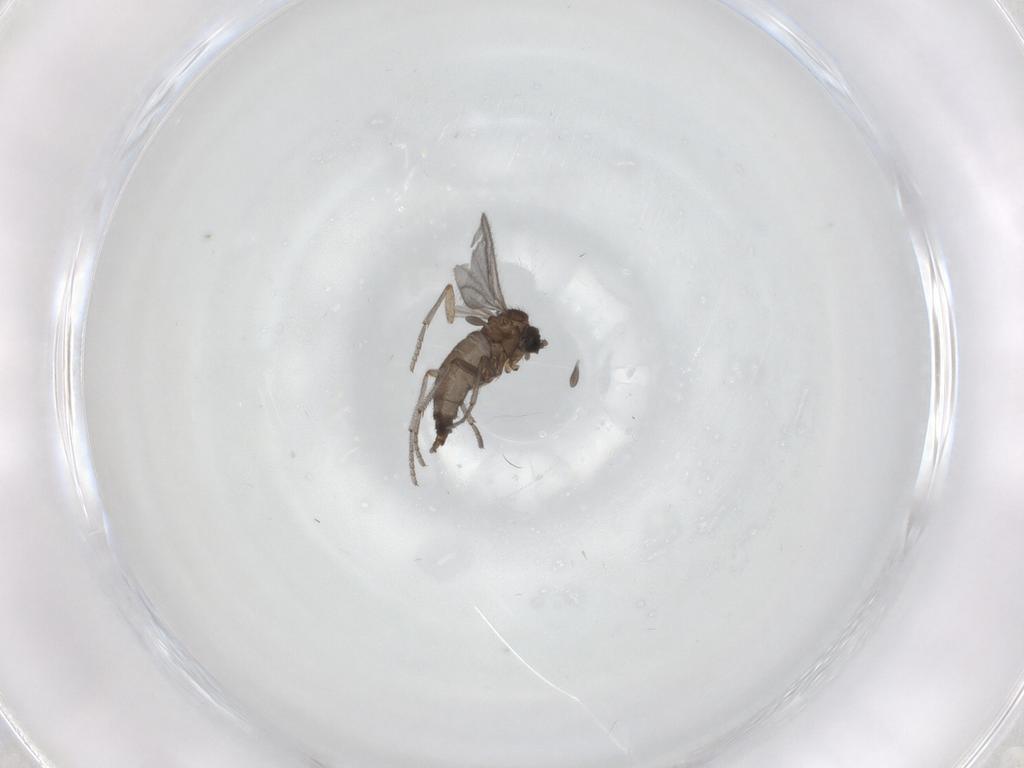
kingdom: Animalia
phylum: Arthropoda
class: Insecta
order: Diptera
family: Sciaridae
